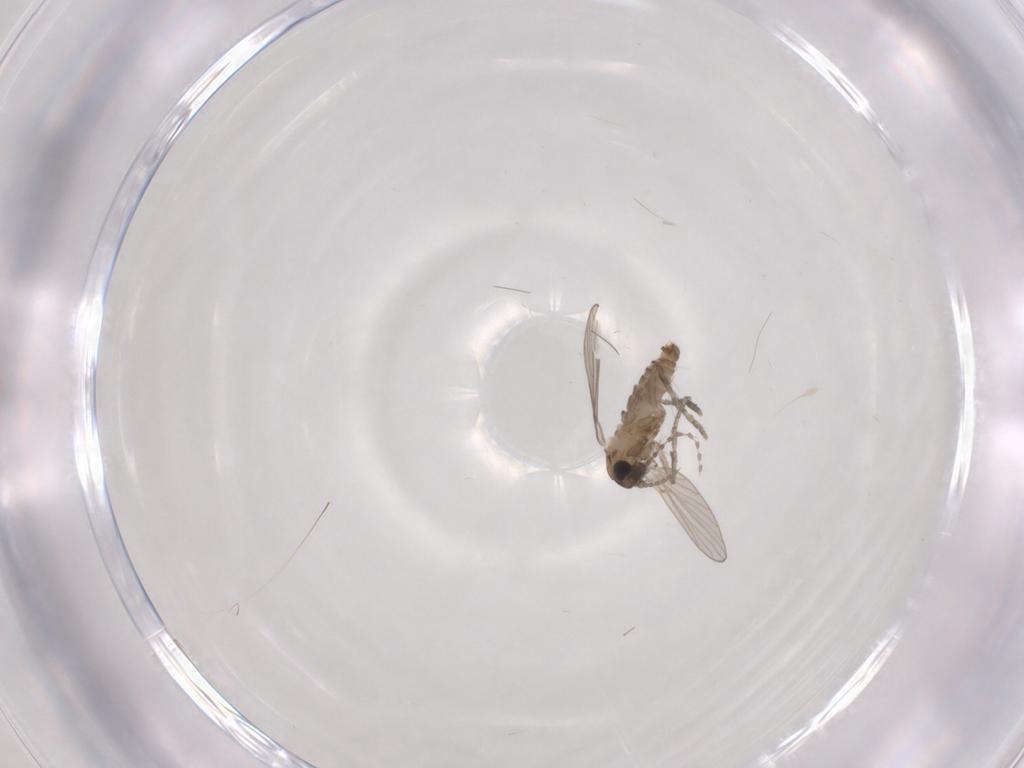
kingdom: Animalia
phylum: Arthropoda
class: Insecta
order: Diptera
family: Psychodidae
